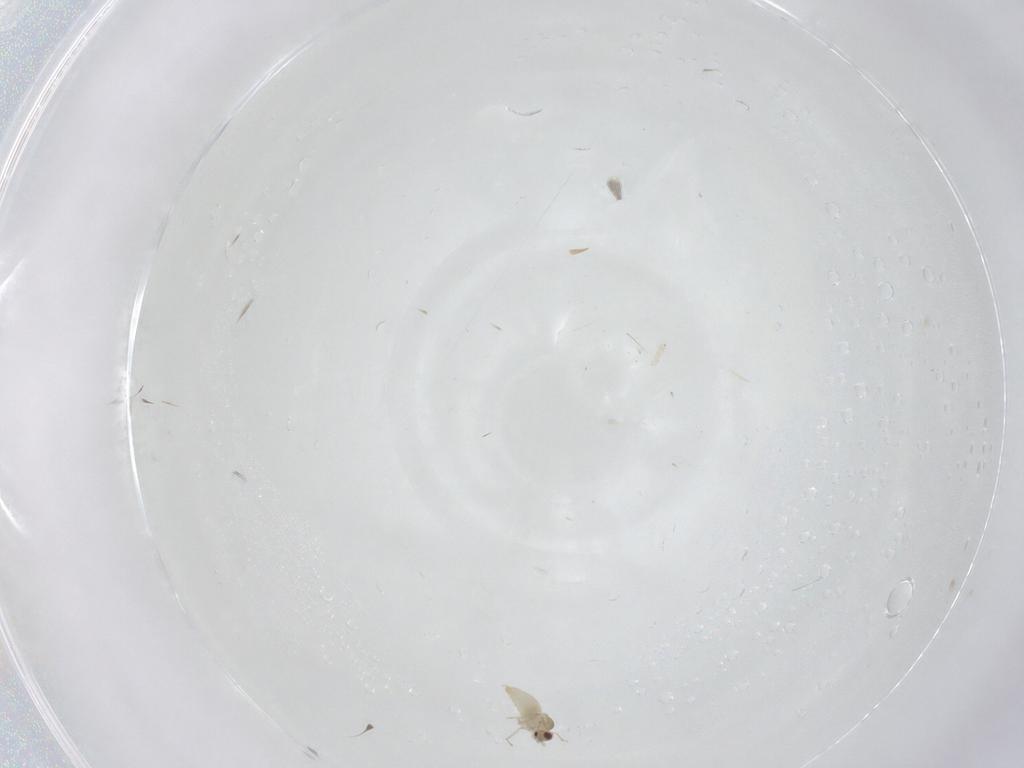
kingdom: Animalia
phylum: Arthropoda
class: Insecta
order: Diptera
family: Cecidomyiidae
